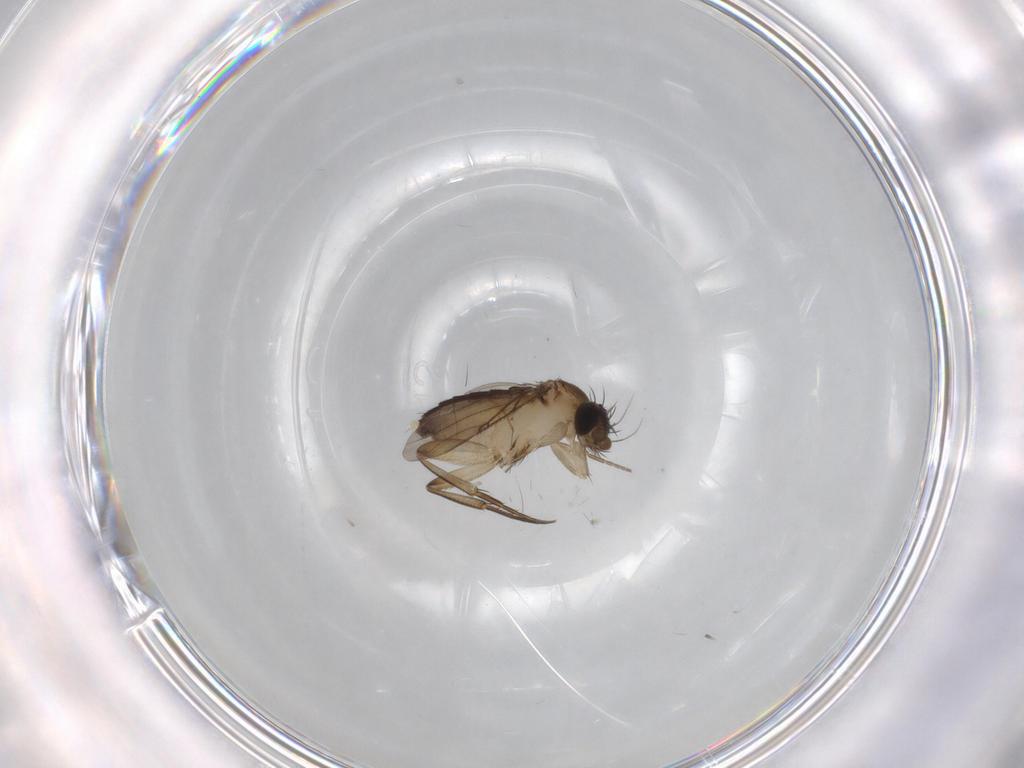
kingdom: Animalia
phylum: Arthropoda
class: Insecta
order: Diptera
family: Phoridae
